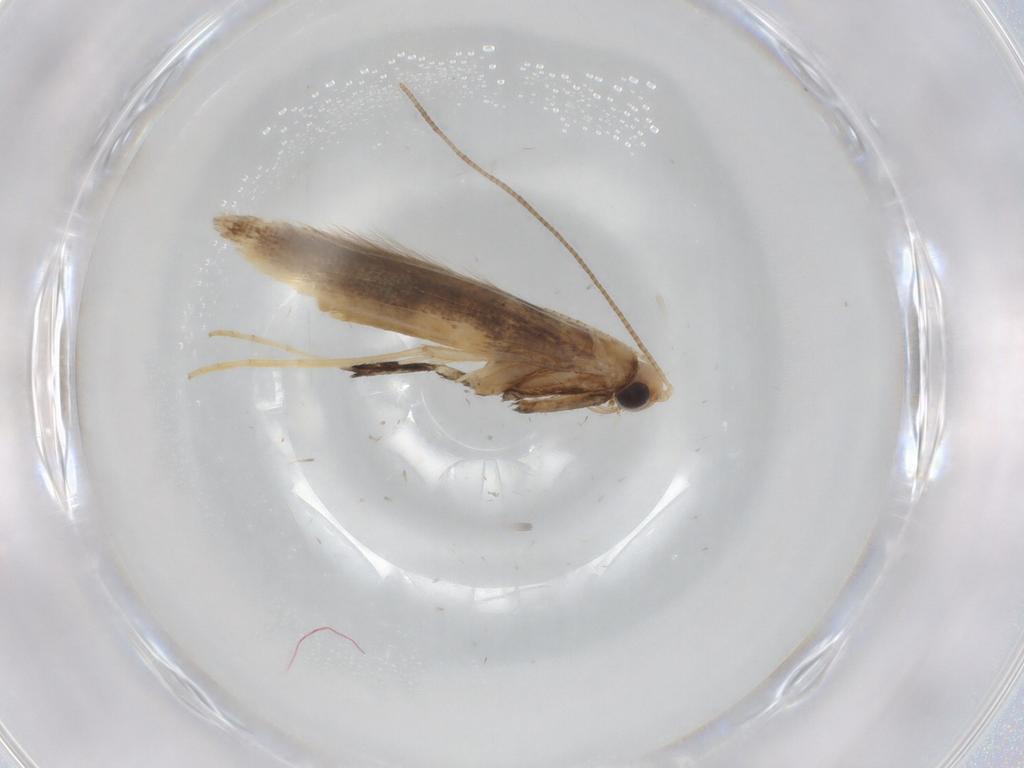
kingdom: Animalia
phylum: Arthropoda
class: Insecta
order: Lepidoptera
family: Gracillariidae
